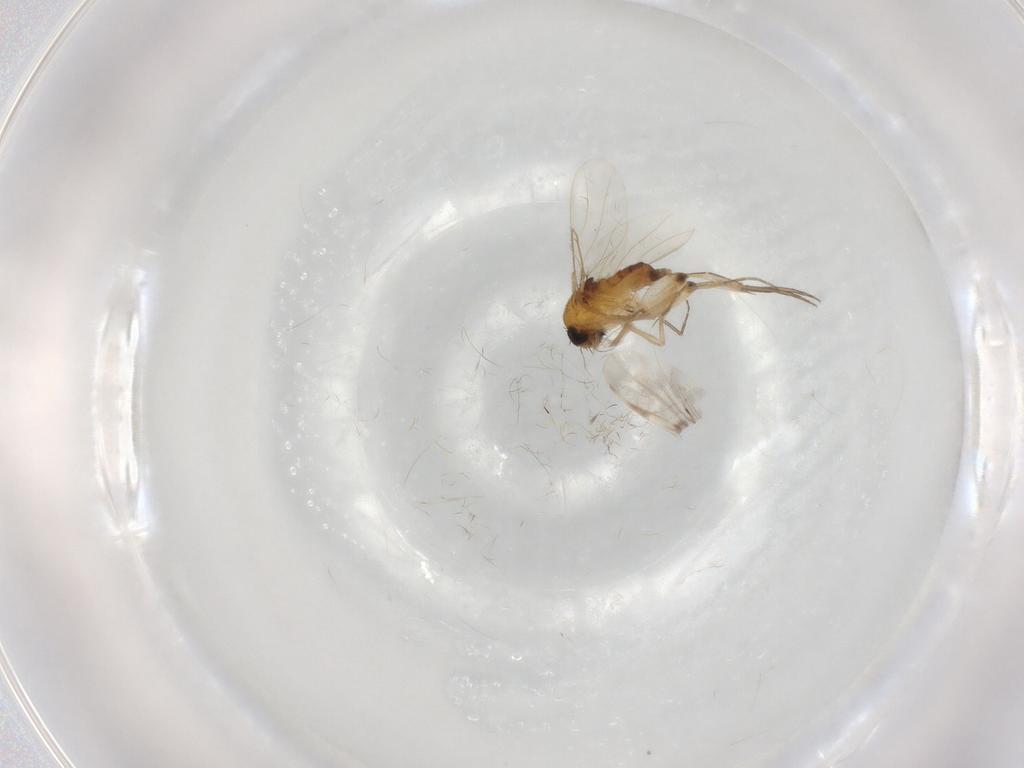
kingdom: Animalia
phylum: Arthropoda
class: Insecta
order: Diptera
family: Chironomidae
